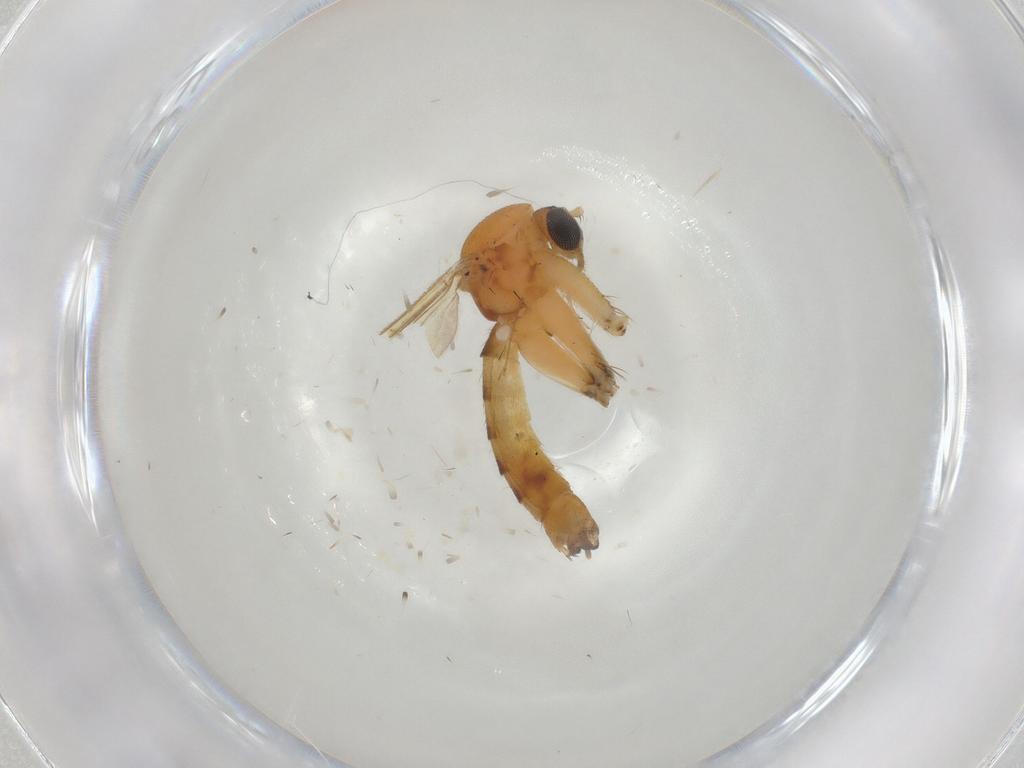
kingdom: Animalia
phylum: Arthropoda
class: Insecta
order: Diptera
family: Mycetophilidae
